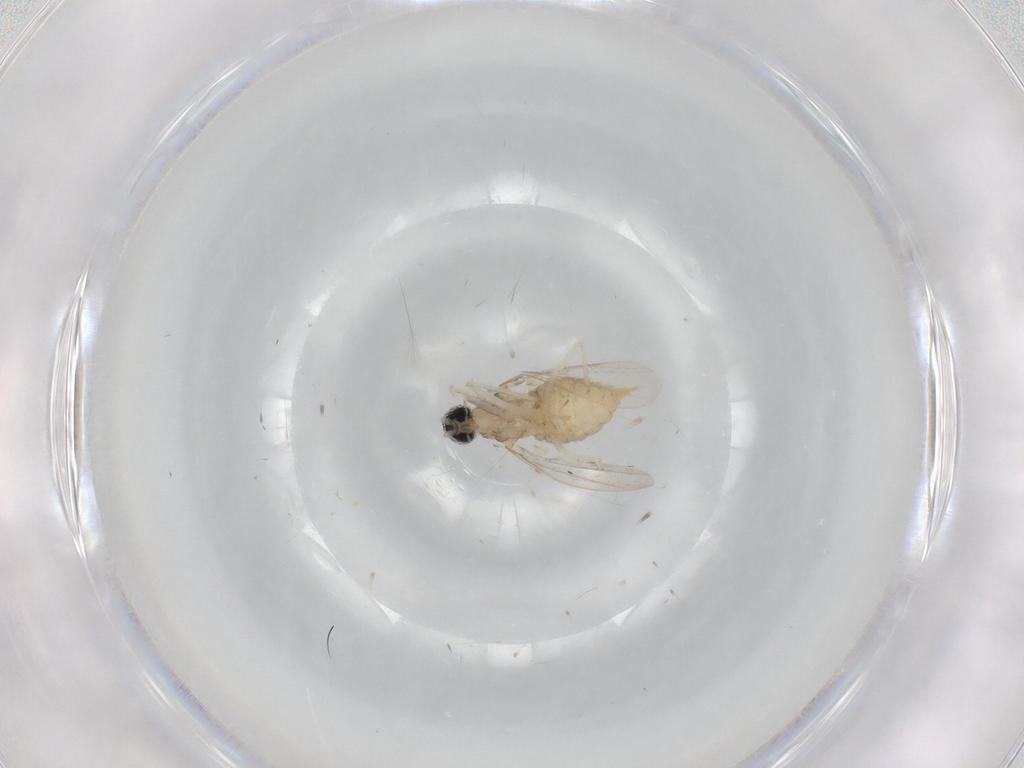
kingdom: Animalia
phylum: Arthropoda
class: Insecta
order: Diptera
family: Cecidomyiidae
